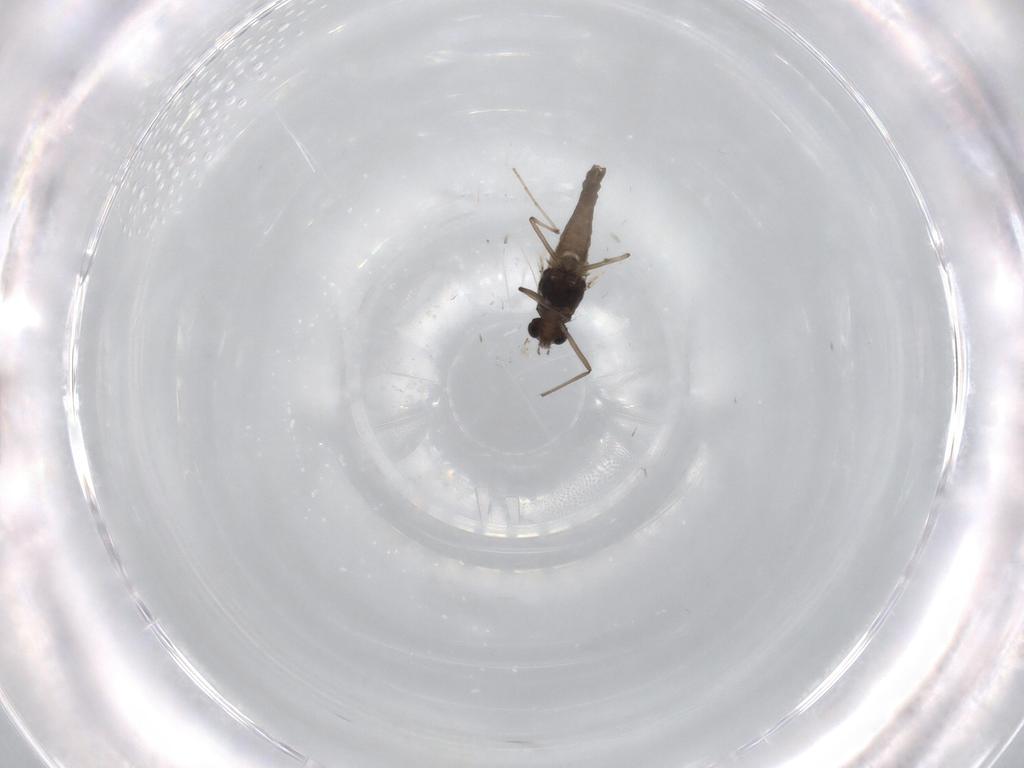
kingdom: Animalia
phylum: Arthropoda
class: Insecta
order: Diptera
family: Chironomidae
